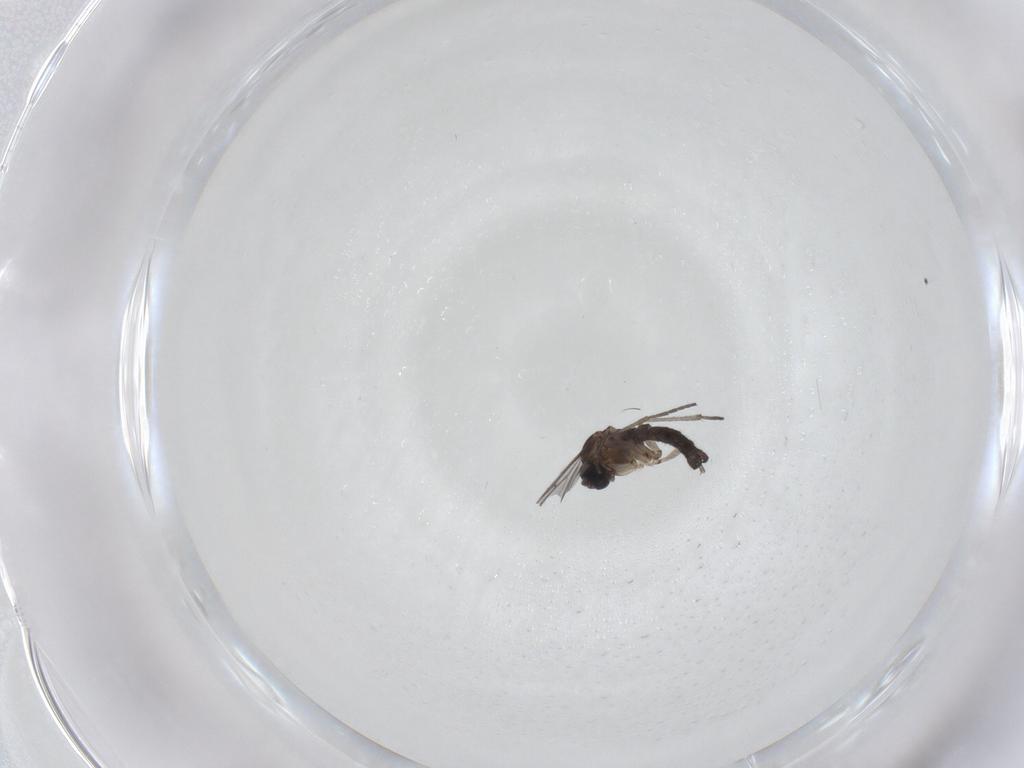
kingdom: Animalia
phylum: Arthropoda
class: Insecta
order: Diptera
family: Sciaridae
